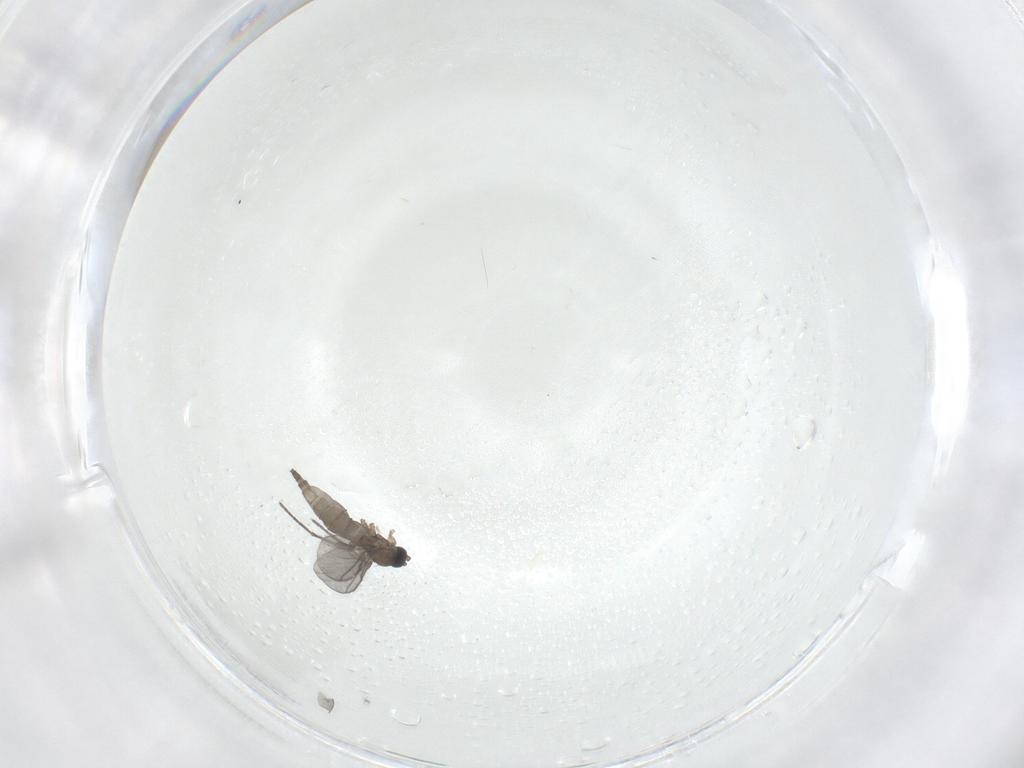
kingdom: Animalia
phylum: Arthropoda
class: Insecta
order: Diptera
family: Sciaridae
